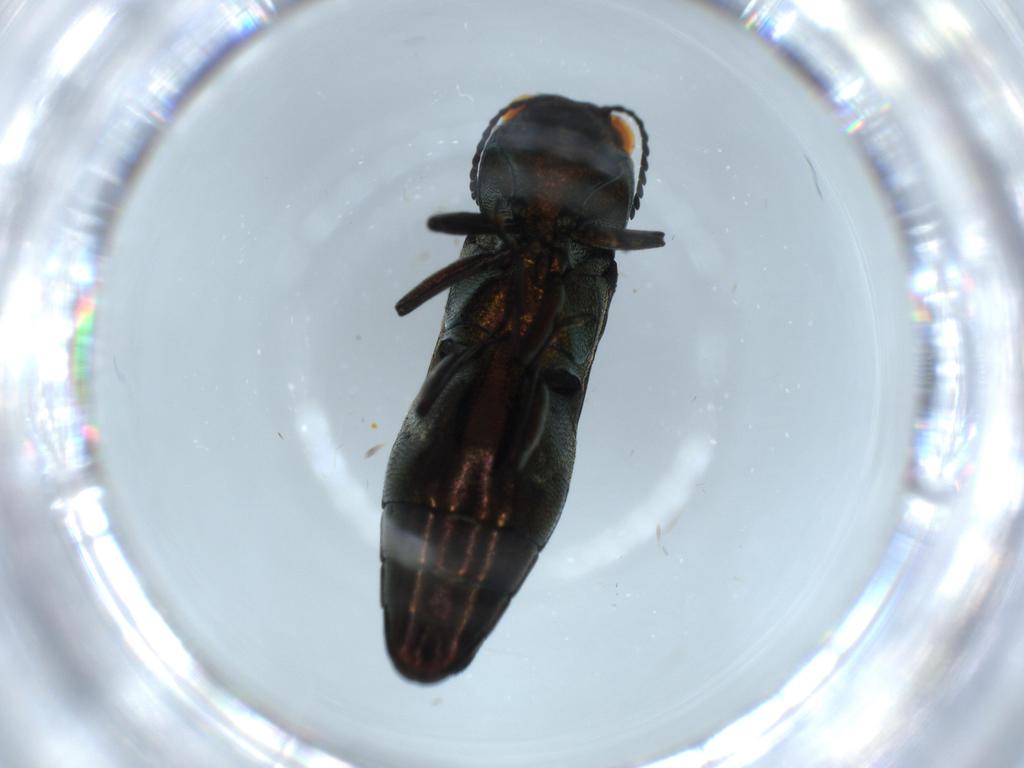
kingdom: Animalia
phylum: Arthropoda
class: Insecta
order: Coleoptera
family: Buprestidae
